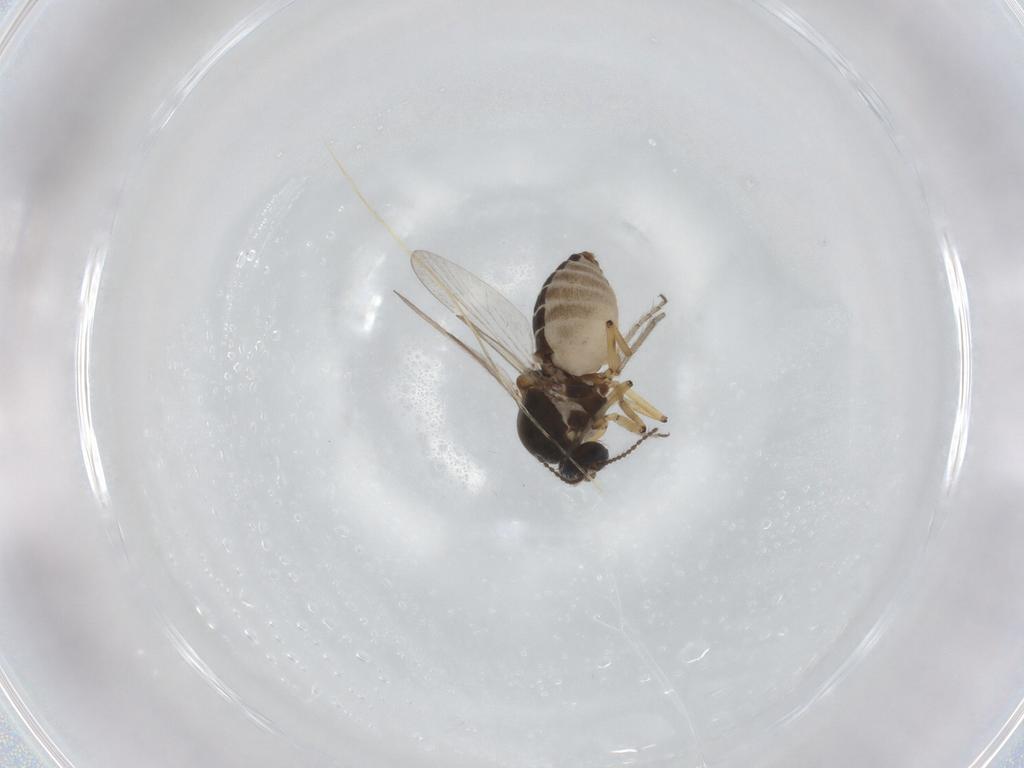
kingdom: Animalia
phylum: Arthropoda
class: Insecta
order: Diptera
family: Ceratopogonidae
